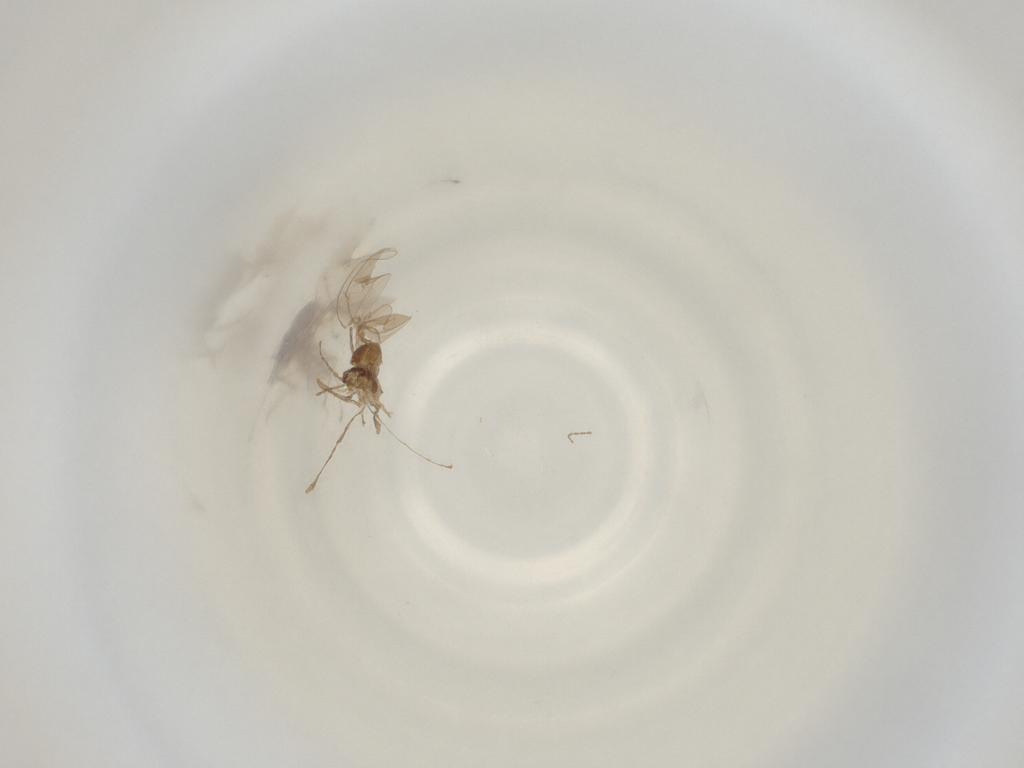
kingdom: Animalia
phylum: Arthropoda
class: Insecta
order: Diptera
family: Cecidomyiidae
